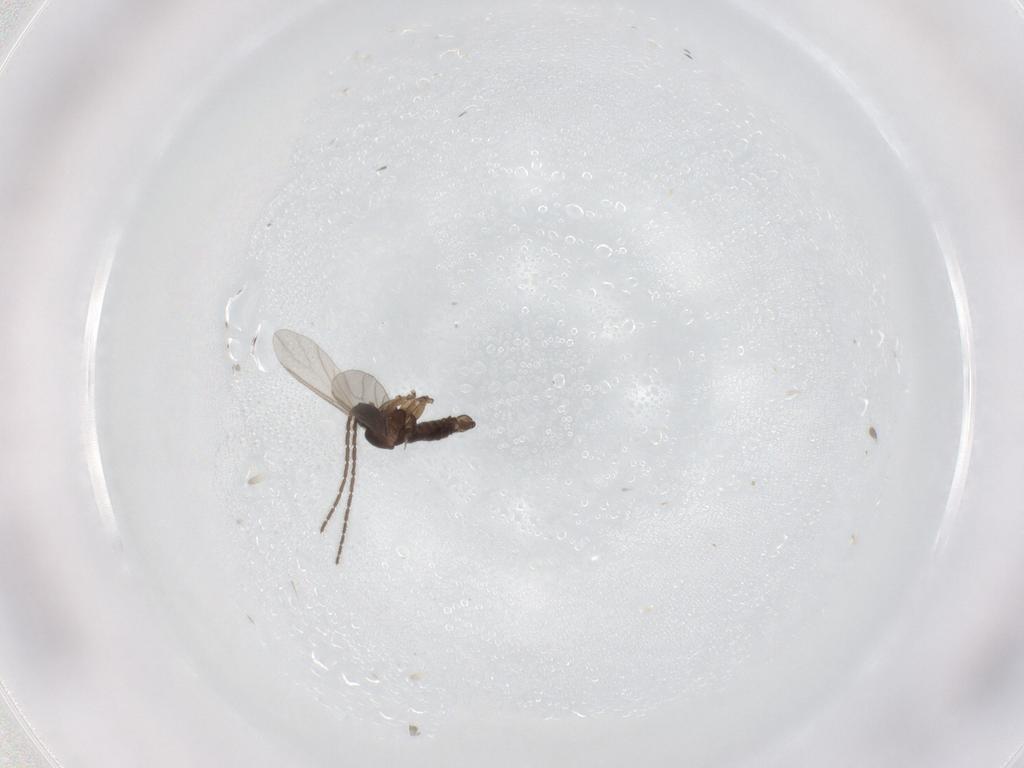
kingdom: Animalia
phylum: Arthropoda
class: Insecta
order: Diptera
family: Sciaridae
